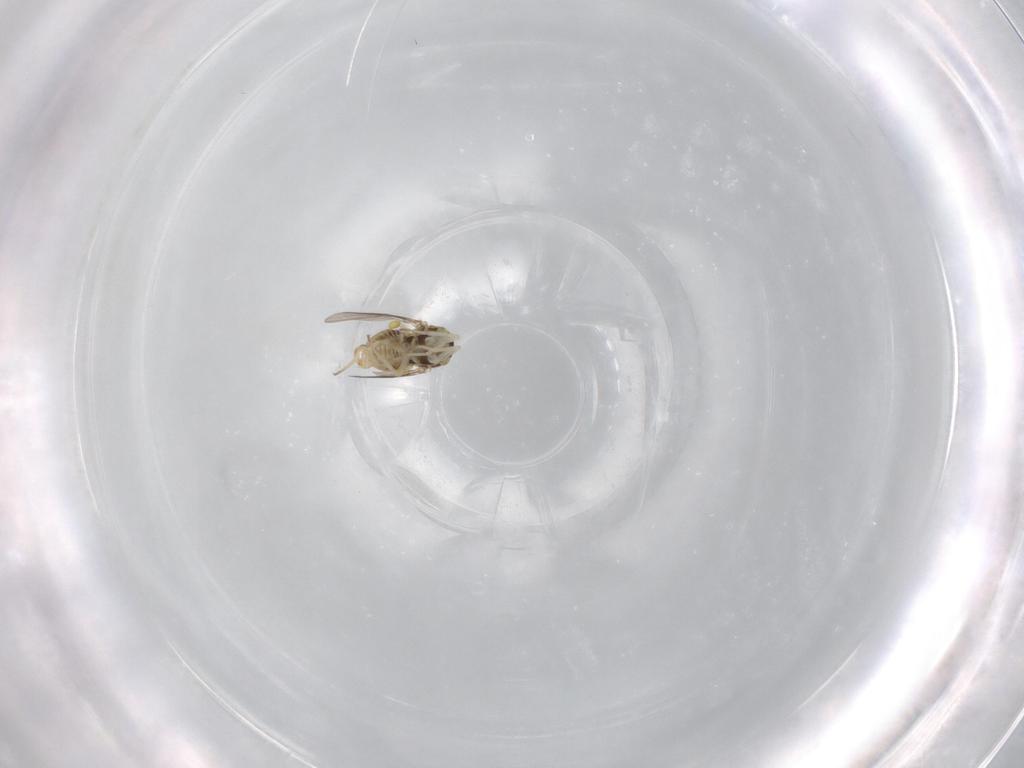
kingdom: Animalia
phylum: Arthropoda
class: Insecta
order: Diptera
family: Bombyliidae
